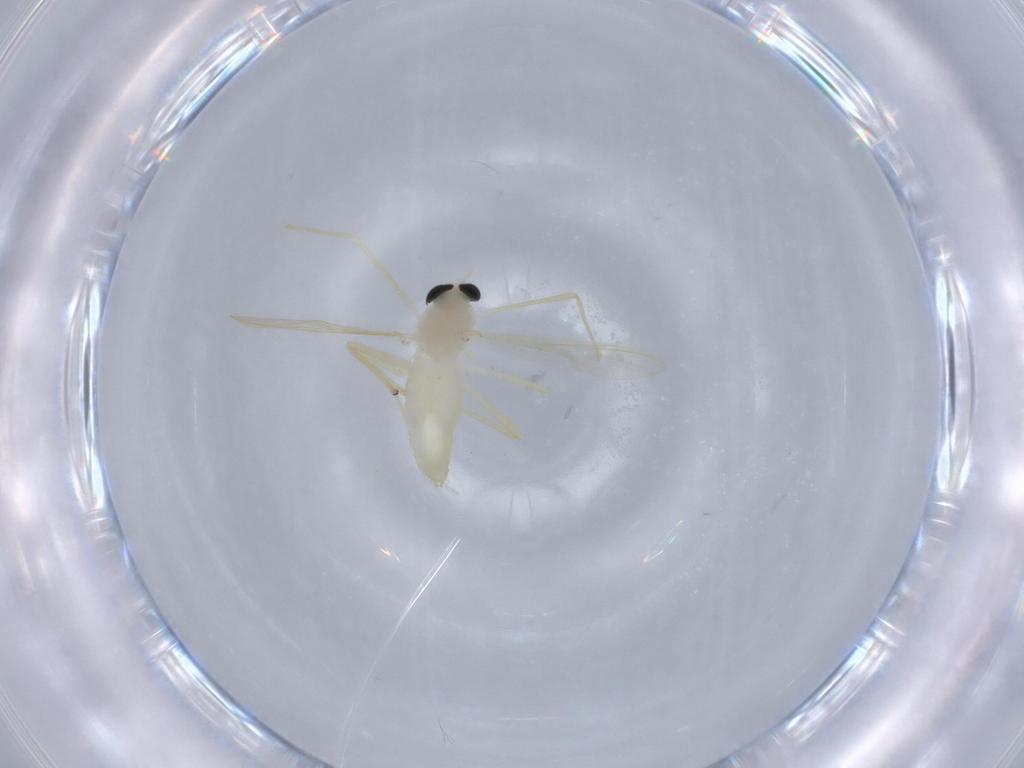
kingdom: Animalia
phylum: Arthropoda
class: Insecta
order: Diptera
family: Chironomidae
